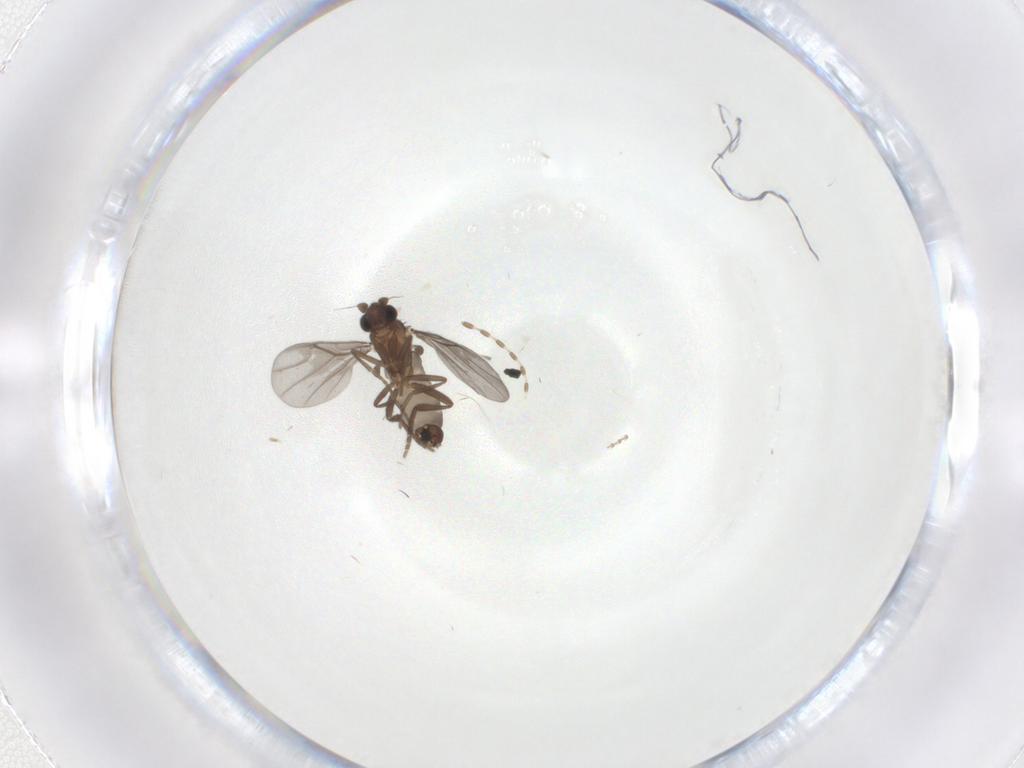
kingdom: Animalia
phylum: Arthropoda
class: Insecta
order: Diptera
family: Psychodidae
